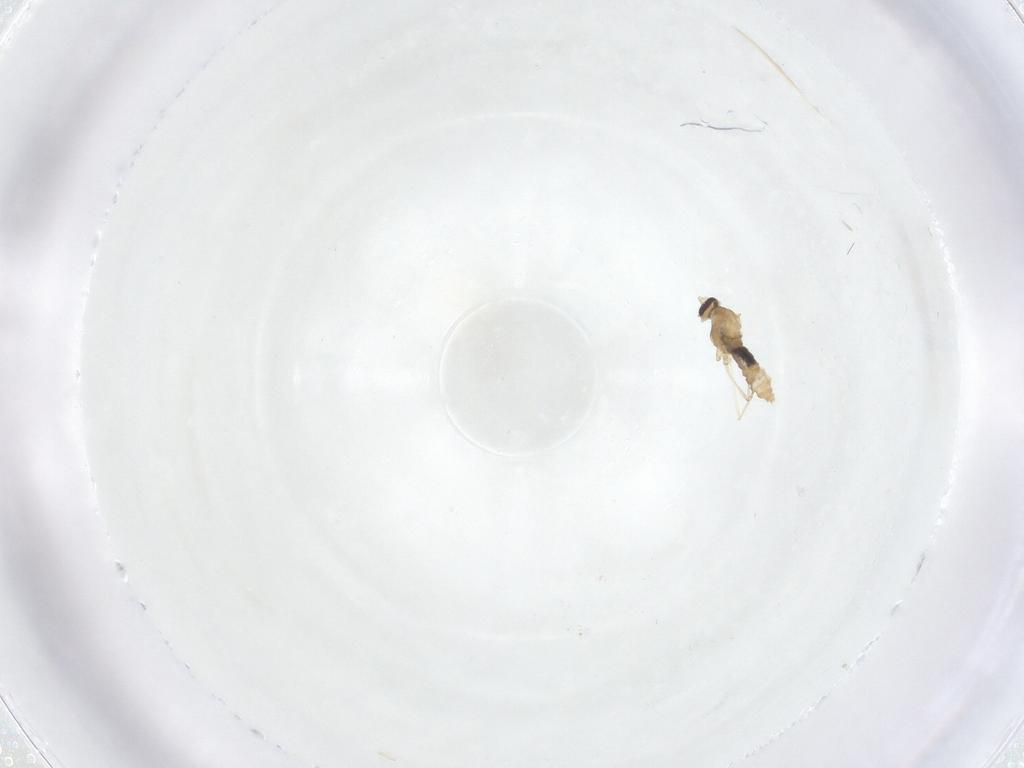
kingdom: Animalia
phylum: Arthropoda
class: Insecta
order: Diptera
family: Cecidomyiidae
